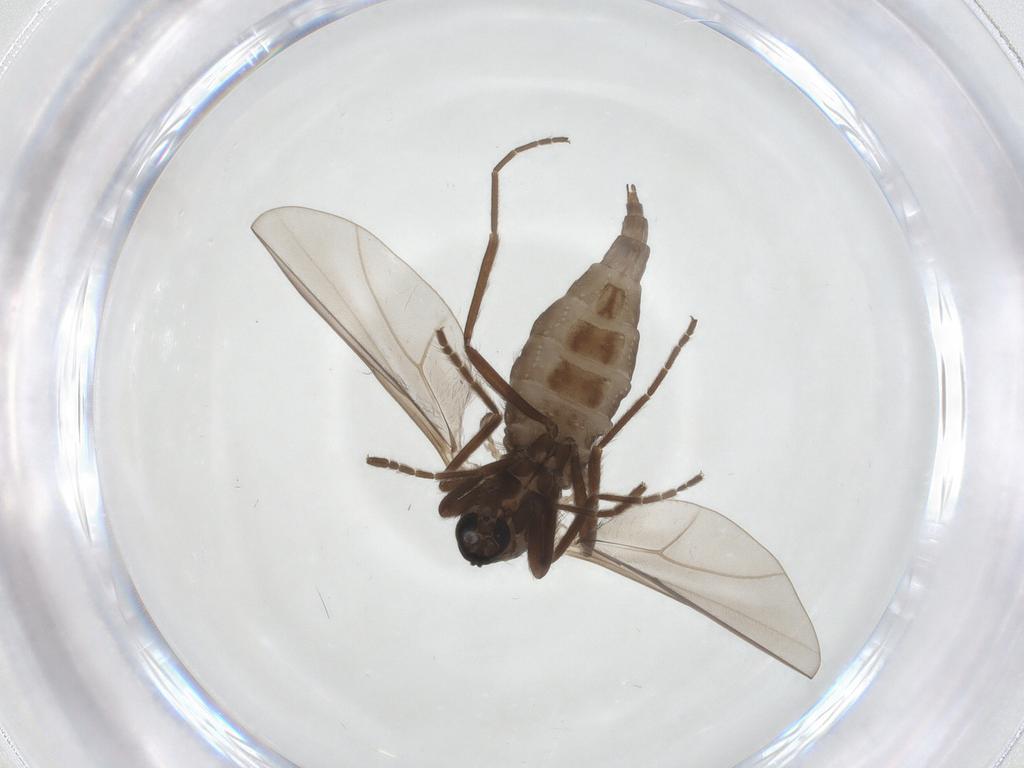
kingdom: Animalia
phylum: Arthropoda
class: Insecta
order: Diptera
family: Cecidomyiidae
